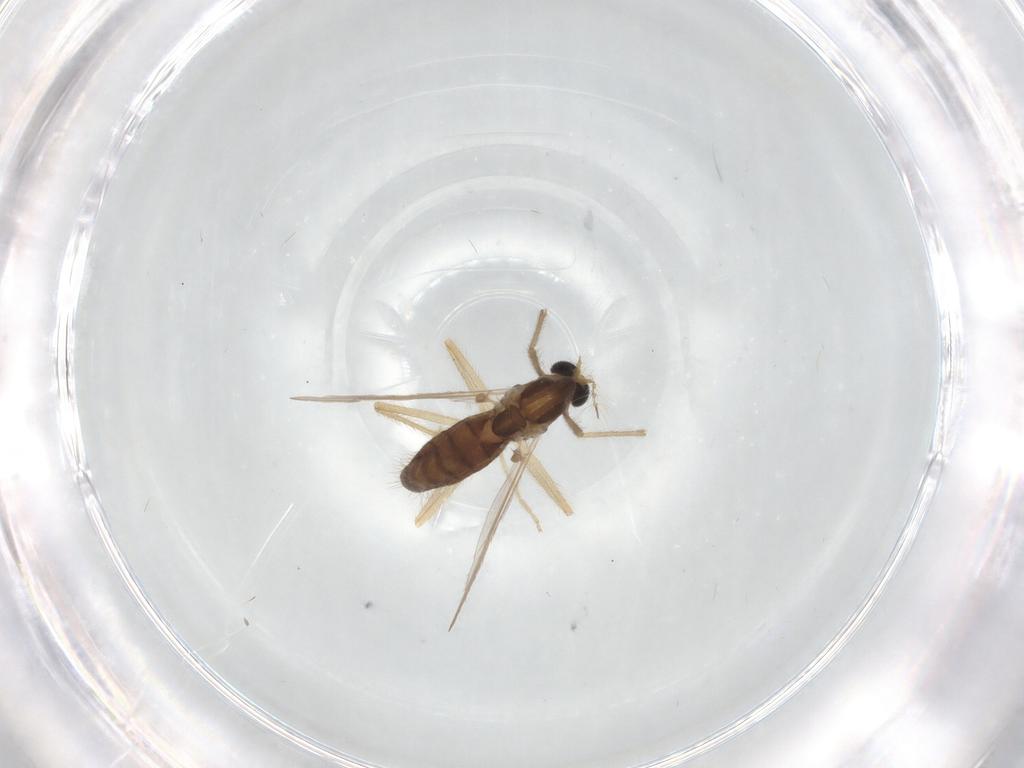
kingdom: Animalia
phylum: Arthropoda
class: Insecta
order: Diptera
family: Chironomidae
